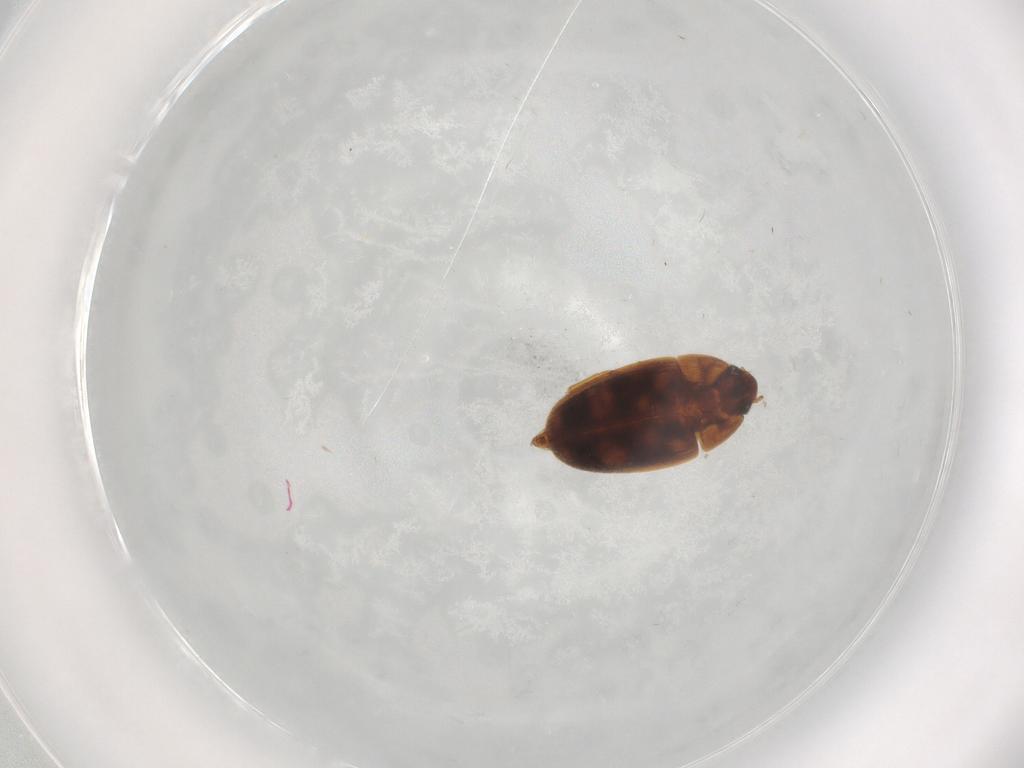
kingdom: Animalia
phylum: Arthropoda
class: Insecta
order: Coleoptera
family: Mycetophagidae
